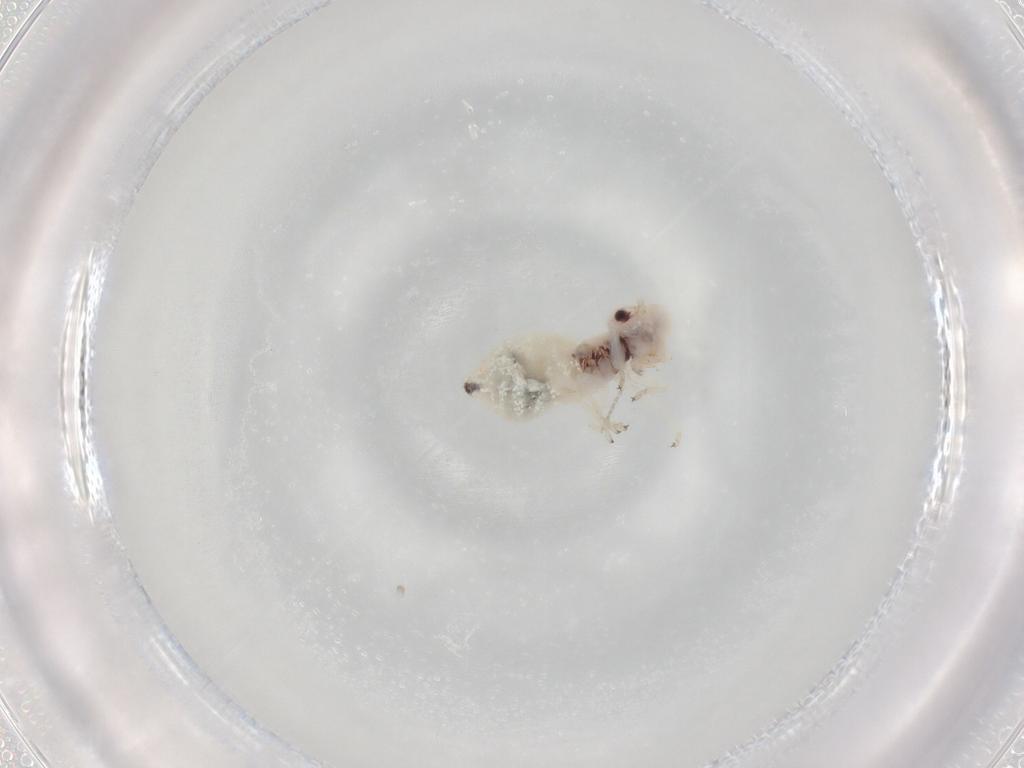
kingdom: Animalia
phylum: Arthropoda
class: Insecta
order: Psocodea
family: Amphipsocidae
